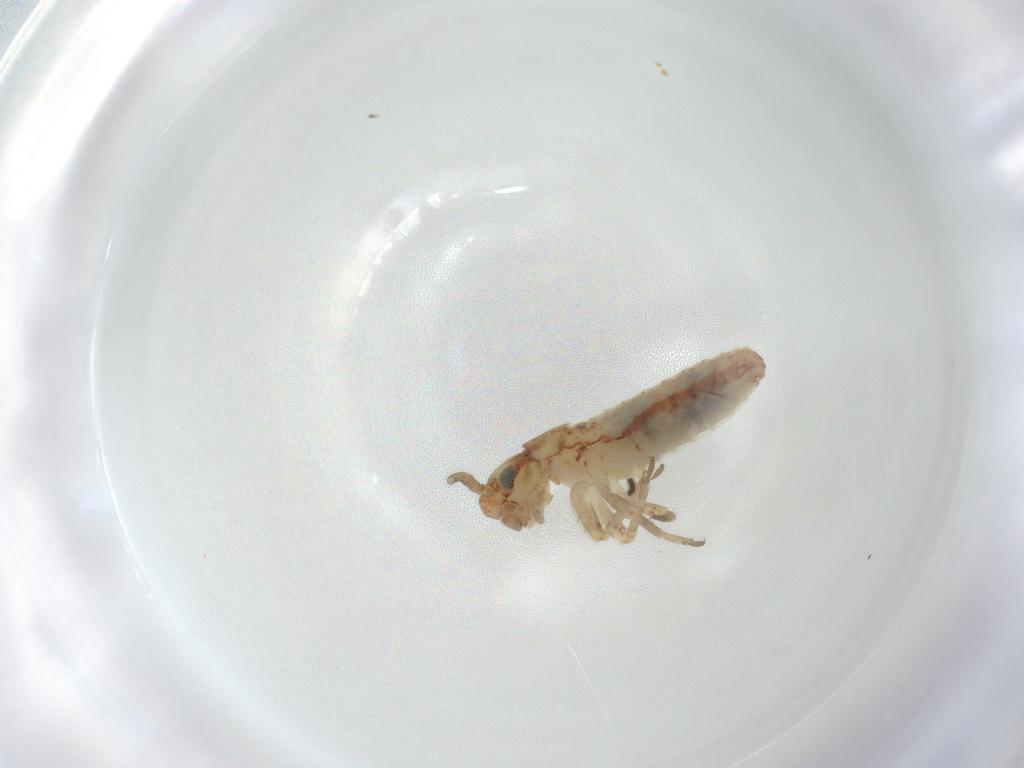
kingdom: Animalia
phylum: Arthropoda
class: Insecta
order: Orthoptera
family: Mogoplistidae
